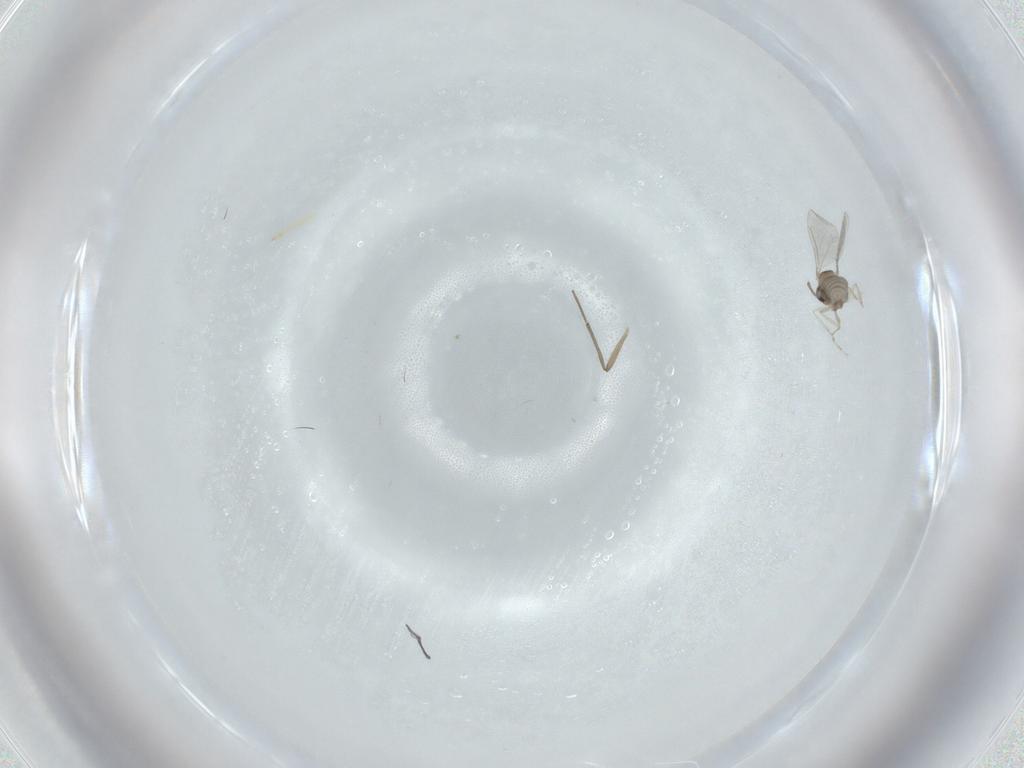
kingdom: Animalia
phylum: Arthropoda
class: Insecta
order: Diptera
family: Cecidomyiidae
